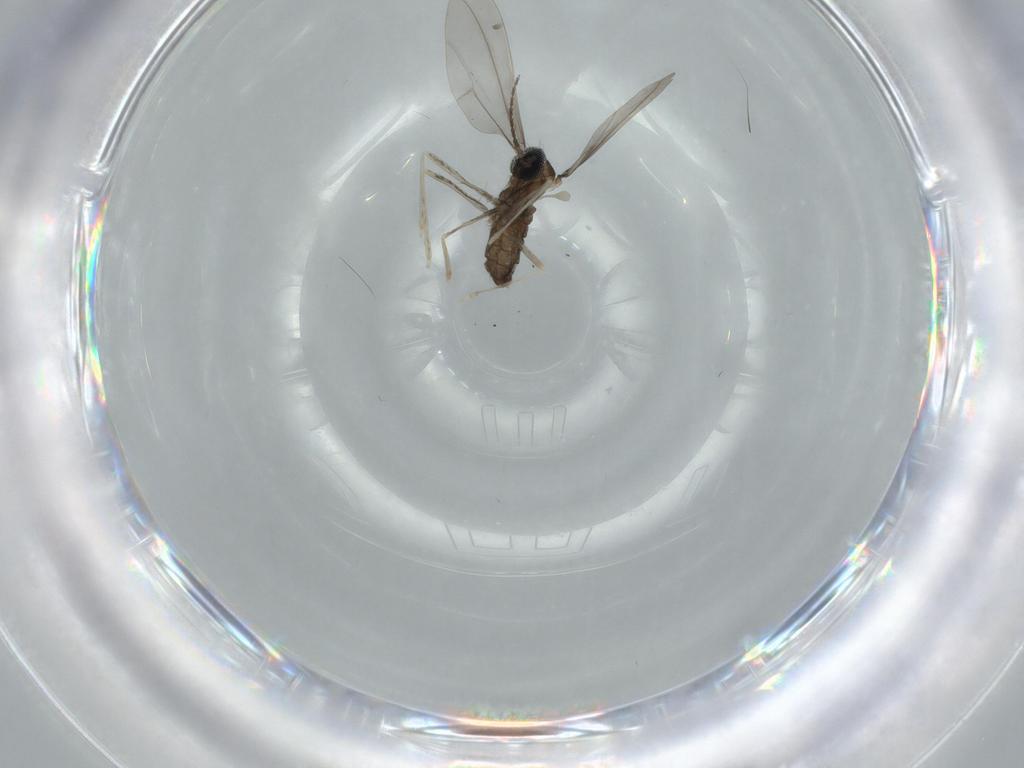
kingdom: Animalia
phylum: Arthropoda
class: Insecta
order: Diptera
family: Cecidomyiidae
